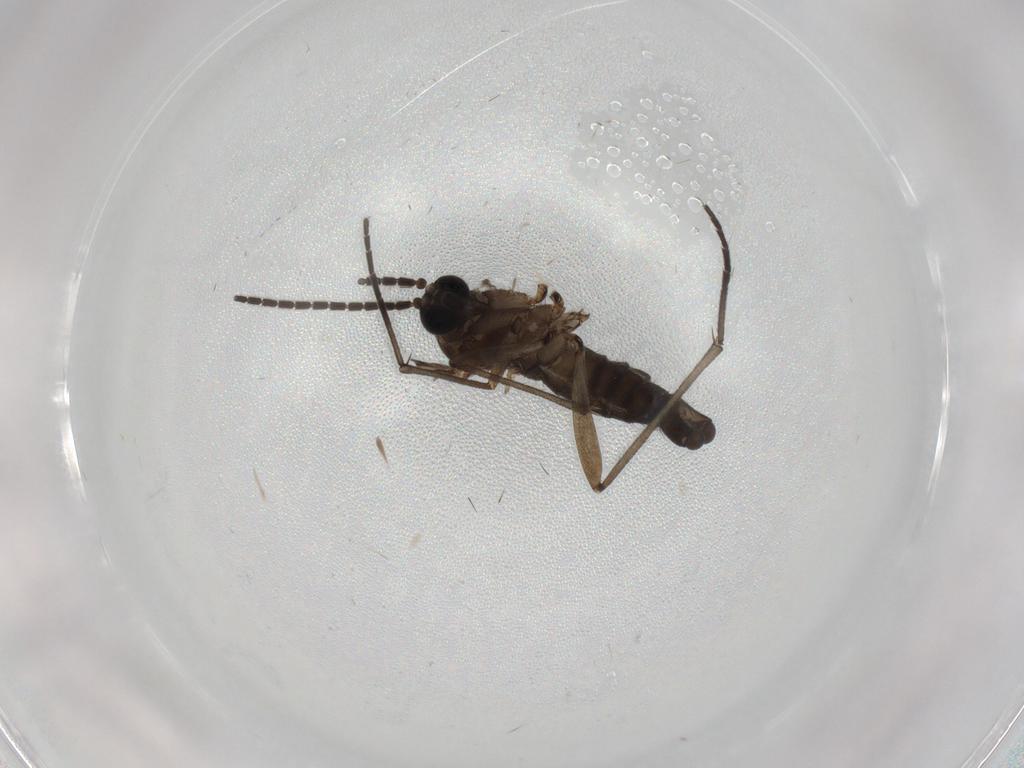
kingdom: Animalia
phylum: Arthropoda
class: Insecta
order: Diptera
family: Sciaridae
